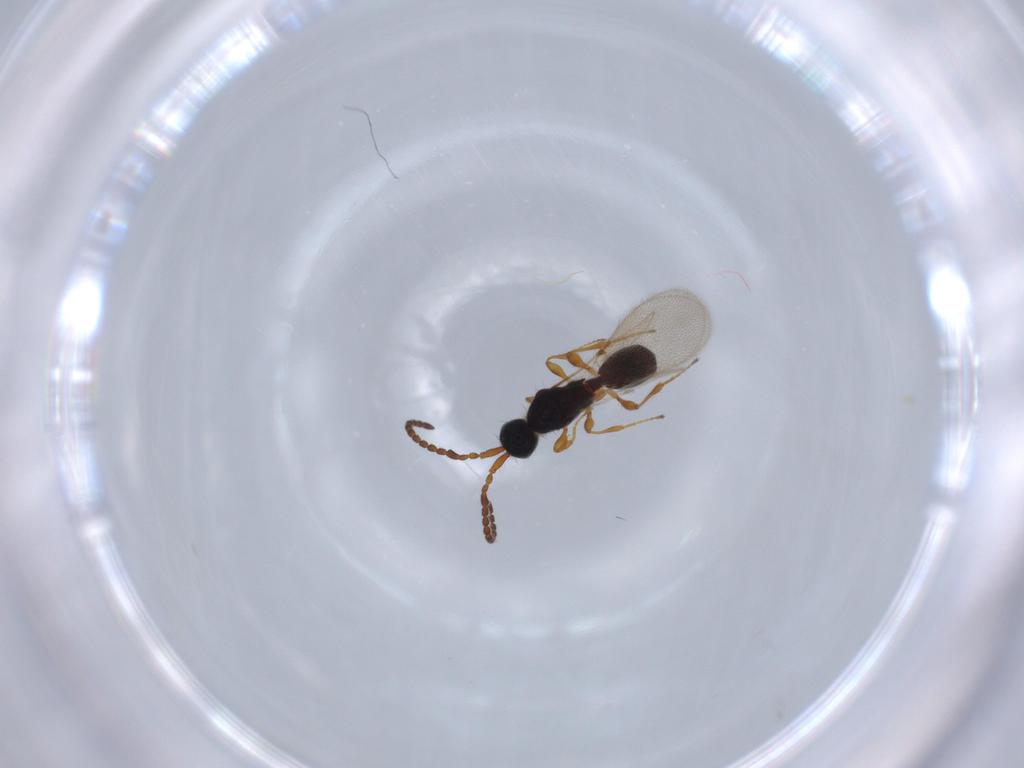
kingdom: Animalia
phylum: Arthropoda
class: Insecta
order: Hymenoptera
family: Diapriidae
